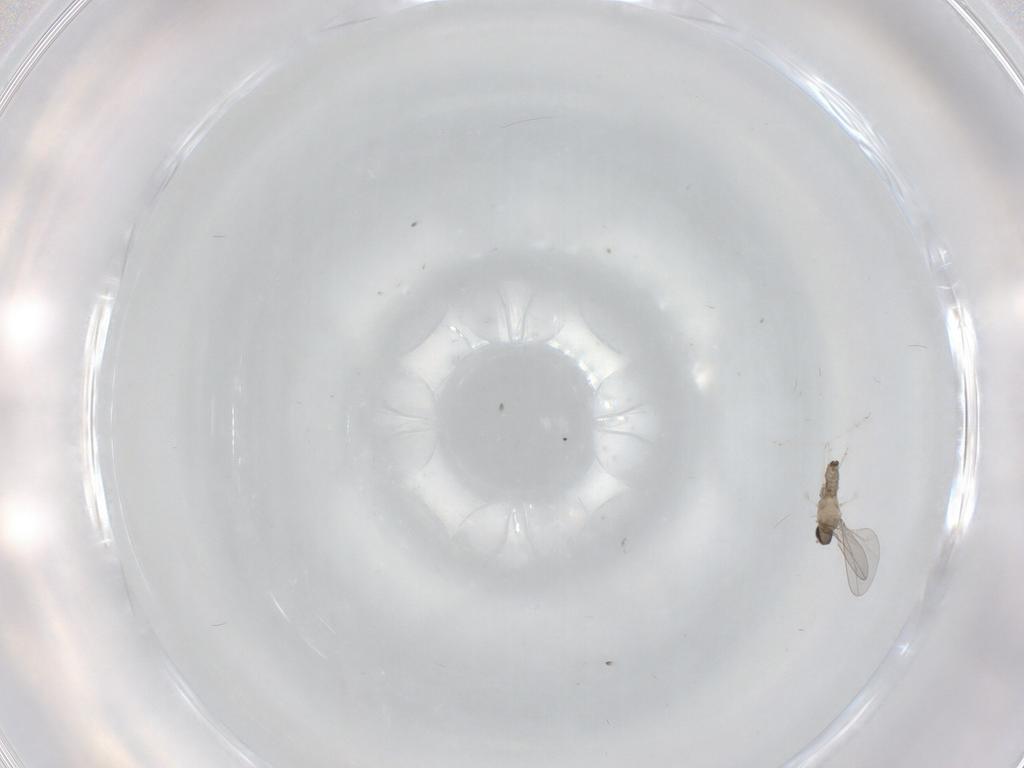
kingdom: Animalia
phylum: Arthropoda
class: Insecta
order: Diptera
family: Cecidomyiidae
